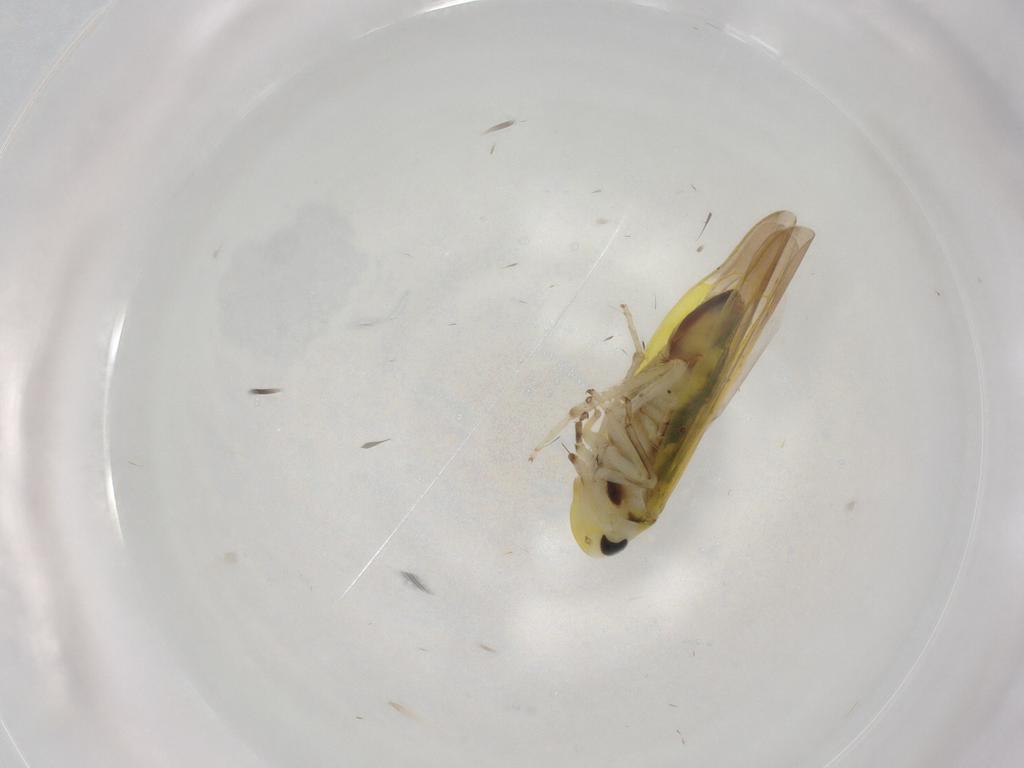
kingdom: Animalia
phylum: Arthropoda
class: Insecta
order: Hemiptera
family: Cicadellidae
